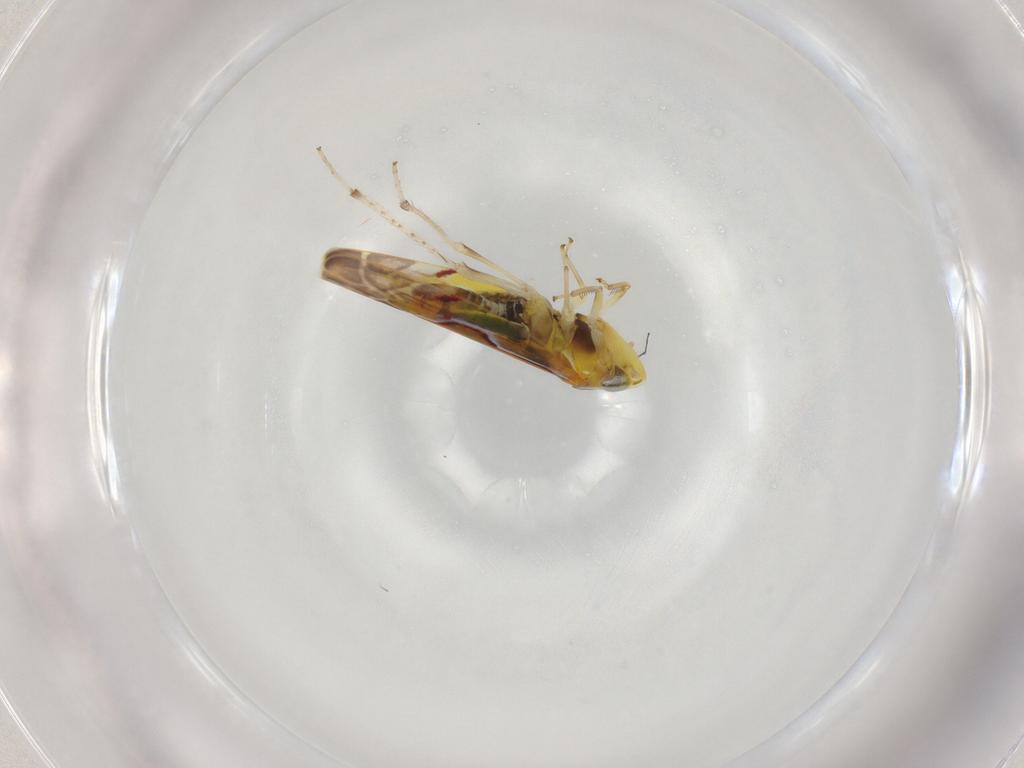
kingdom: Animalia
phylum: Arthropoda
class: Insecta
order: Hemiptera
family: Cicadellidae
